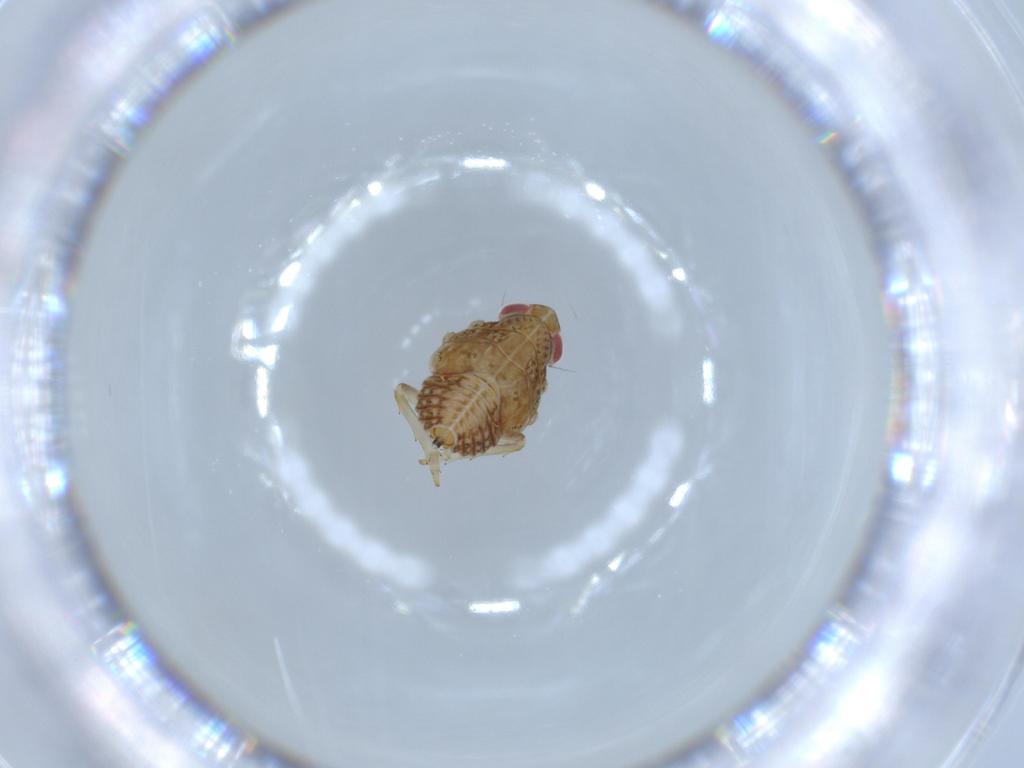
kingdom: Animalia
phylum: Arthropoda
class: Insecta
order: Hemiptera
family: Issidae
